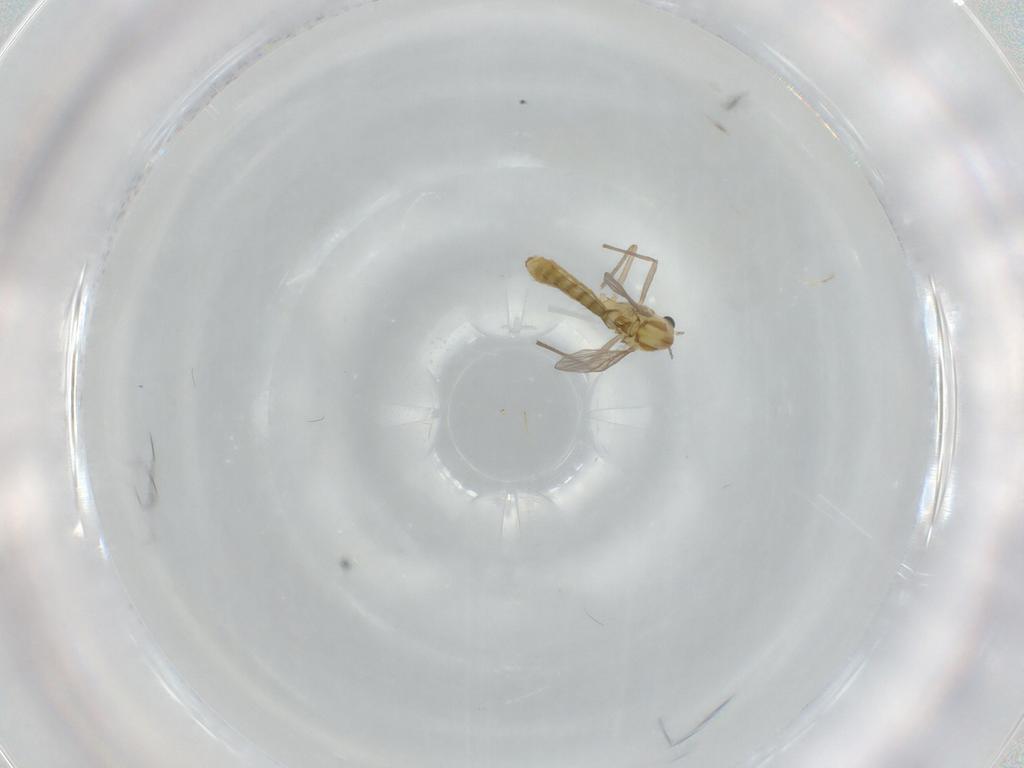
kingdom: Animalia
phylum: Arthropoda
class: Insecta
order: Diptera
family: Chironomidae
